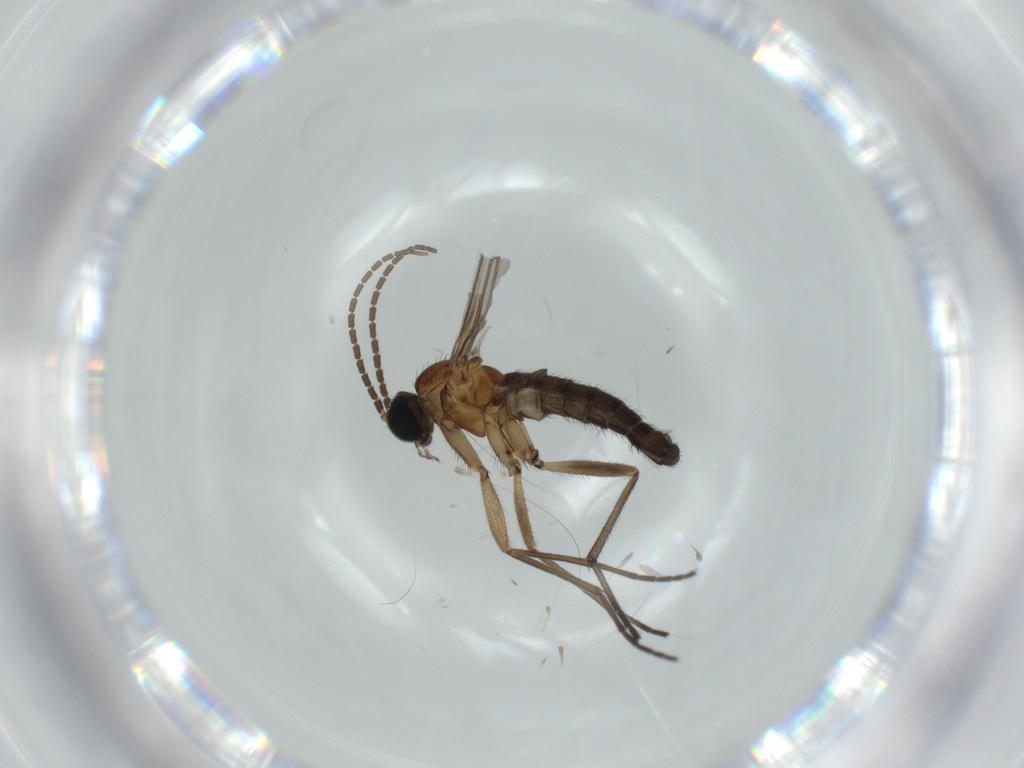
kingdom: Animalia
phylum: Arthropoda
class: Insecta
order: Diptera
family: Sciaridae
